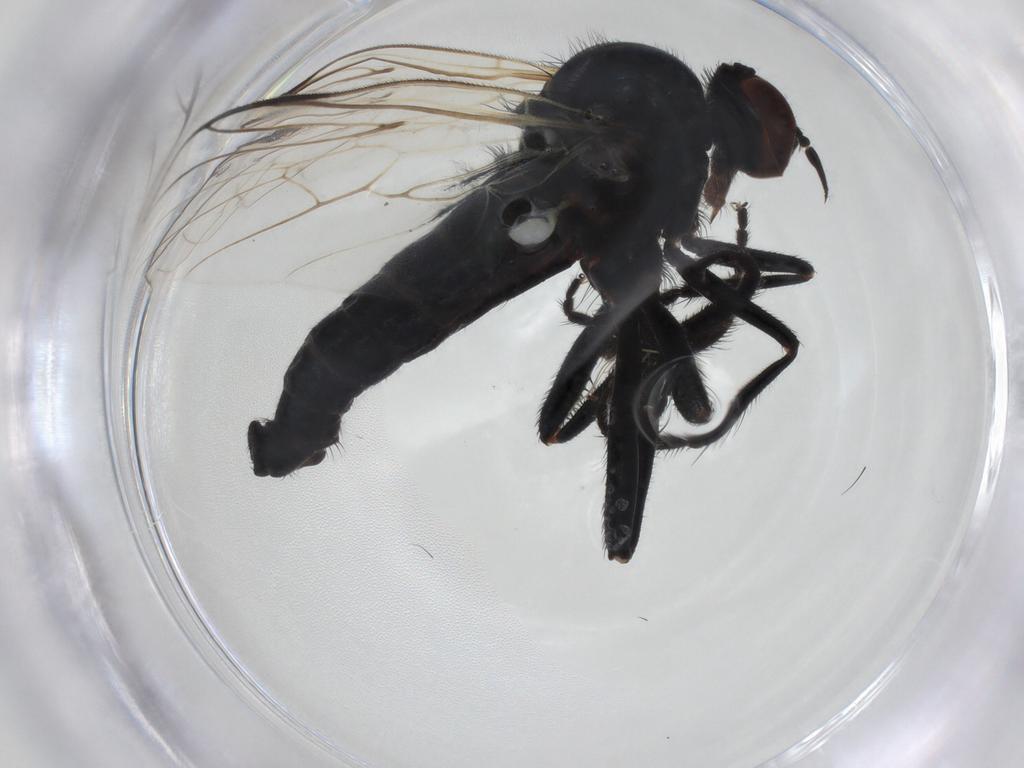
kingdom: Animalia
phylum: Arthropoda
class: Insecta
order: Diptera
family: Empididae
